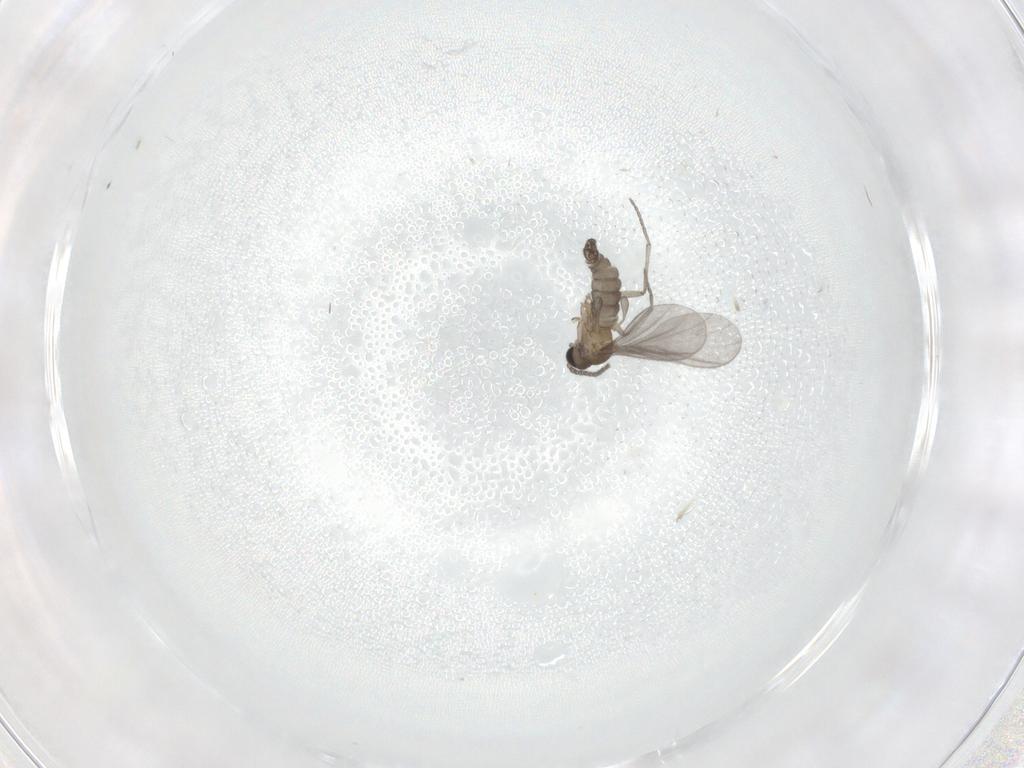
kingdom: Animalia
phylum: Arthropoda
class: Insecta
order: Diptera
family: Sciaridae
